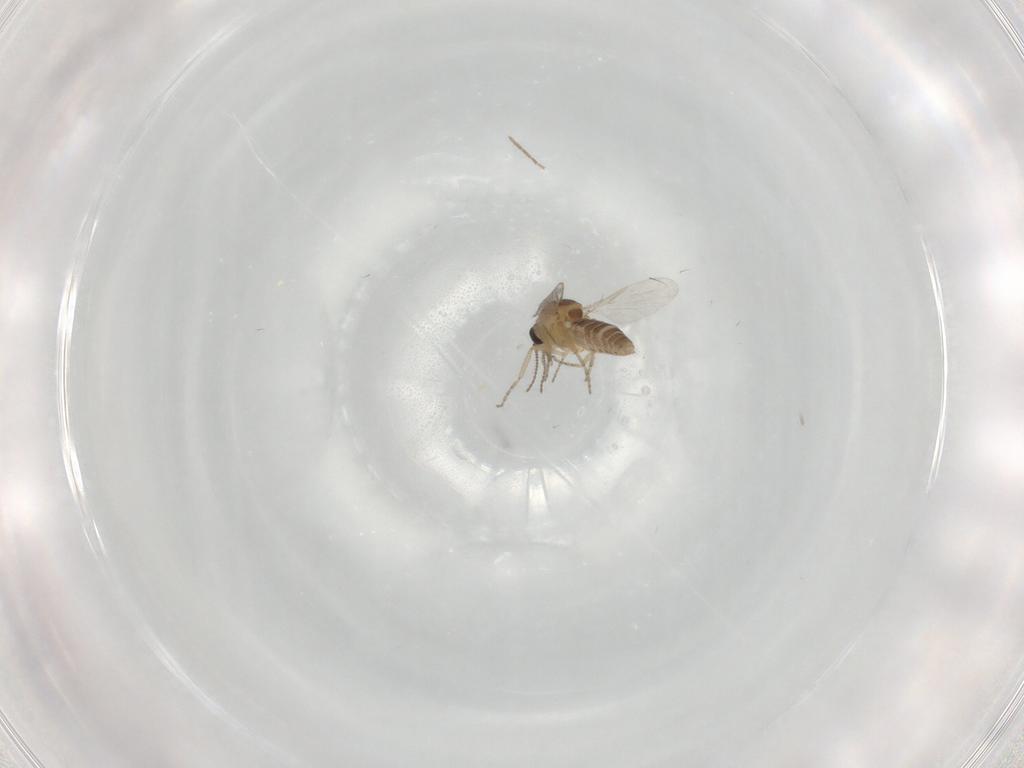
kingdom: Animalia
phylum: Arthropoda
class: Insecta
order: Diptera
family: Ceratopogonidae
